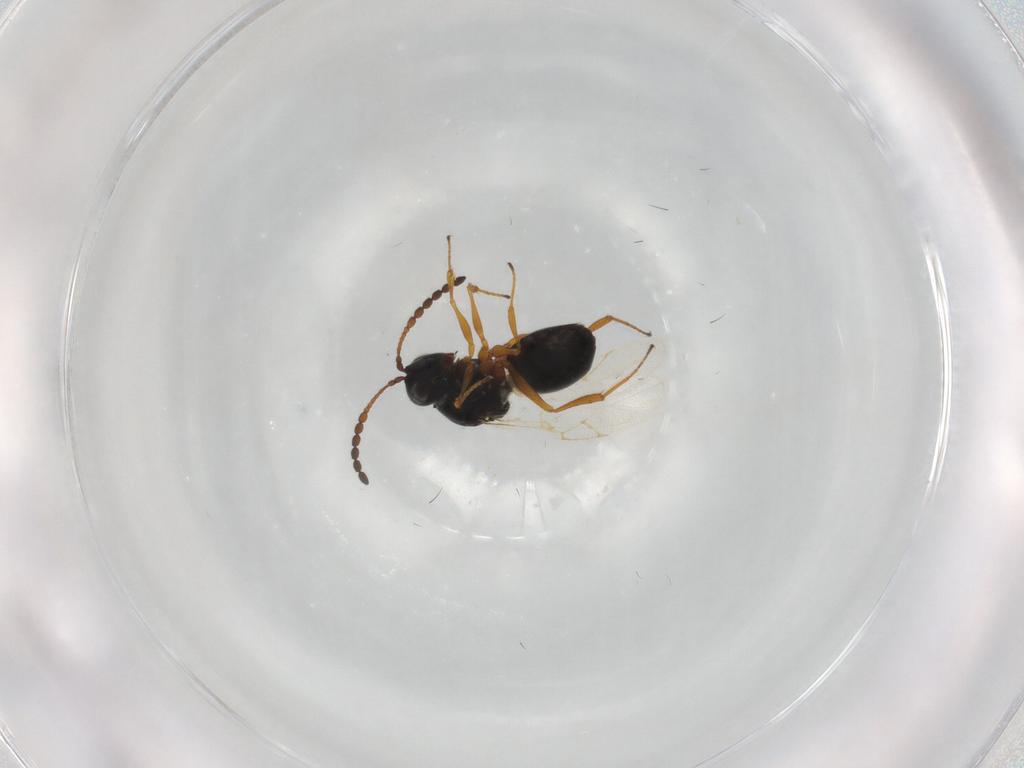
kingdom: Animalia
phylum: Arthropoda
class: Insecta
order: Hymenoptera
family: Figitidae
